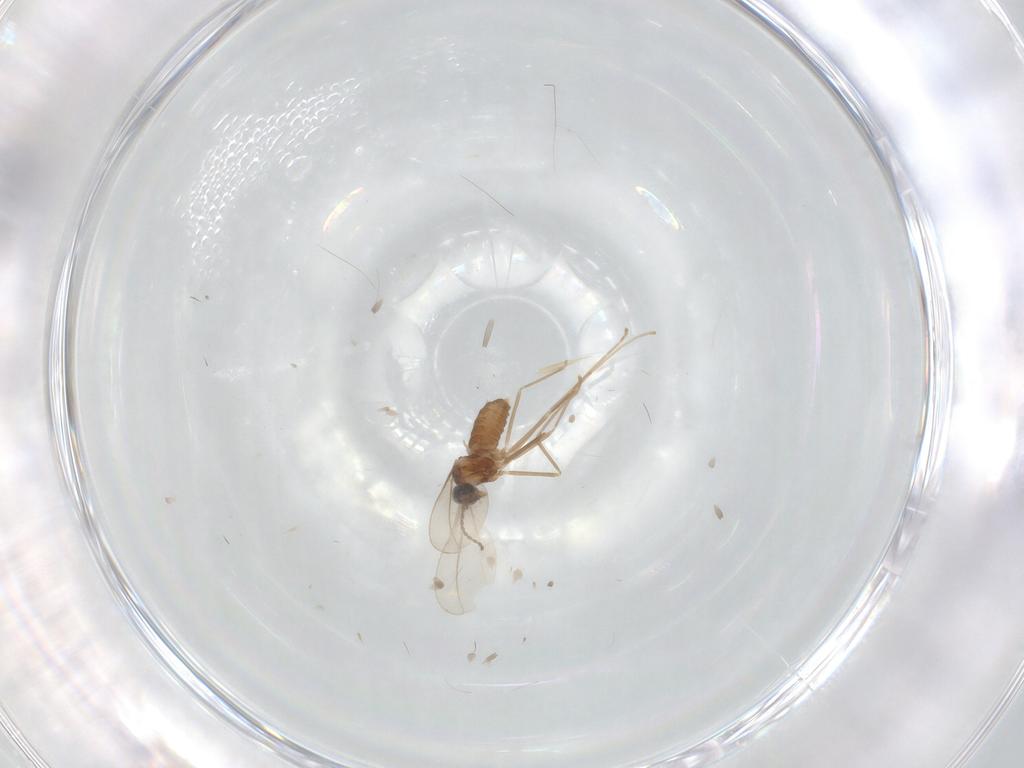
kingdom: Animalia
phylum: Arthropoda
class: Insecta
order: Diptera
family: Cecidomyiidae
